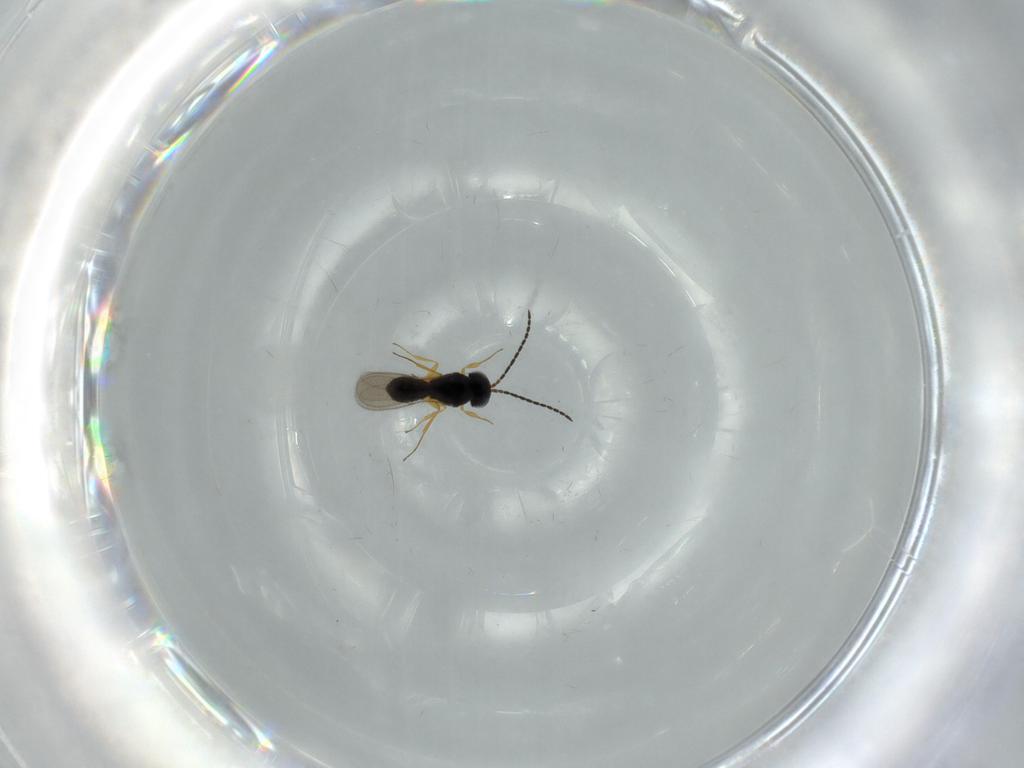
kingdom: Animalia
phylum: Arthropoda
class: Insecta
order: Hymenoptera
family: Scelionidae
